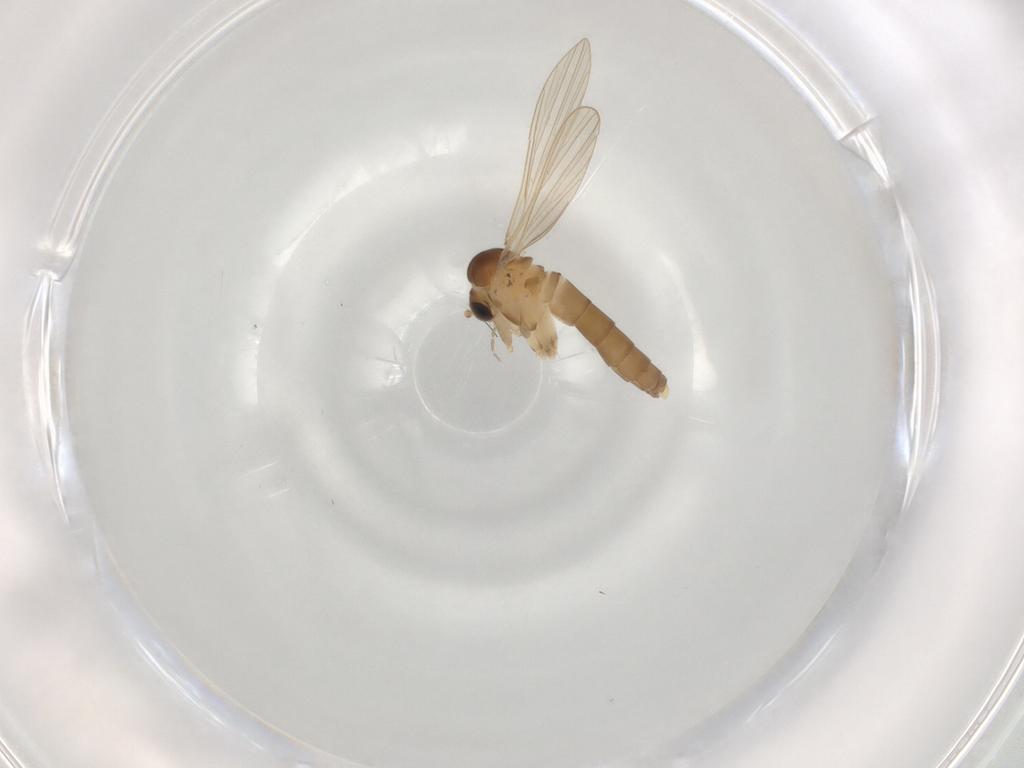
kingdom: Animalia
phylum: Arthropoda
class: Insecta
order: Diptera
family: Psychodidae
